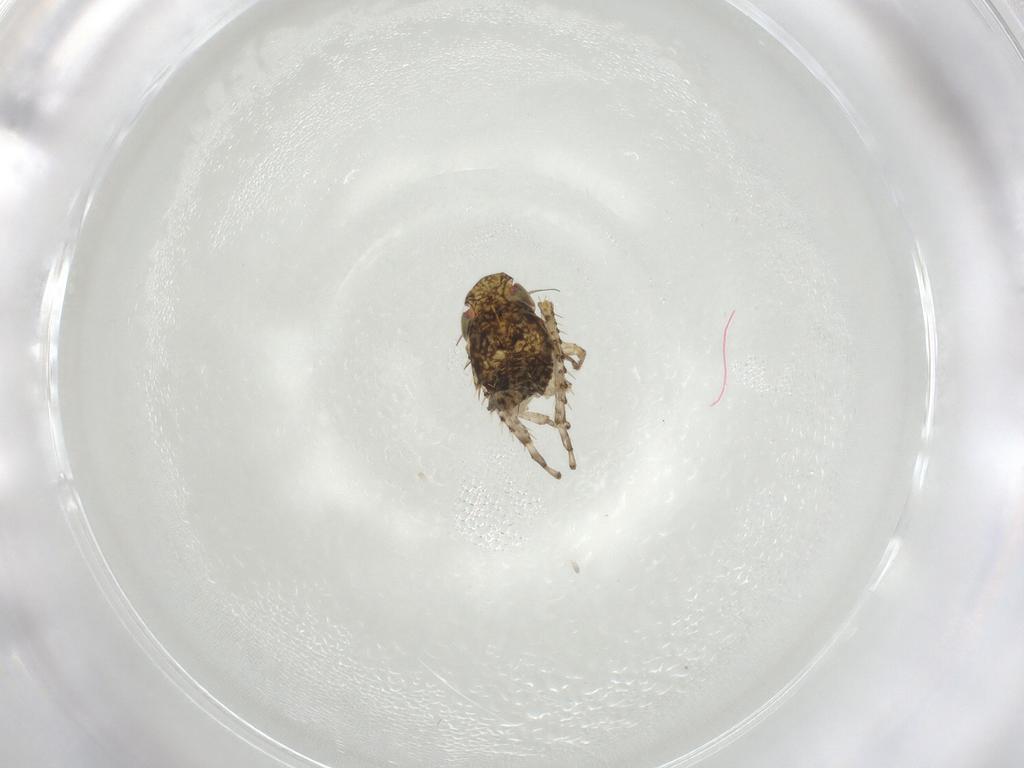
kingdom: Animalia
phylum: Arthropoda
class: Insecta
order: Hemiptera
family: Cicadellidae
